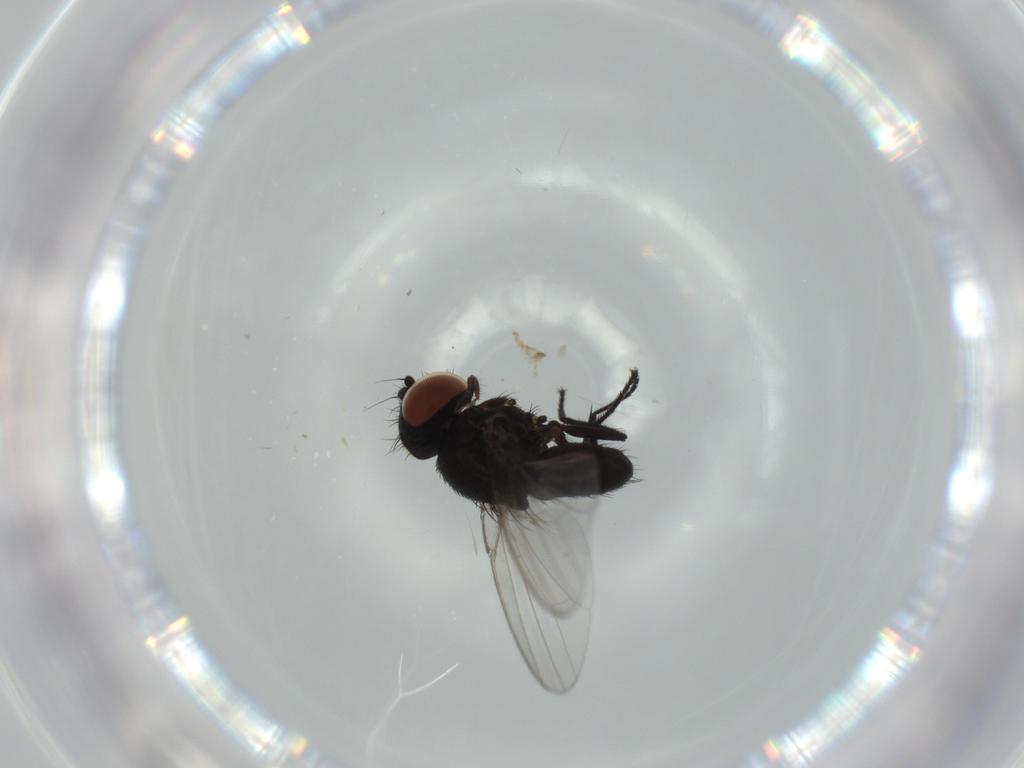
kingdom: Animalia
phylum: Arthropoda
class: Insecta
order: Diptera
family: Milichiidae
